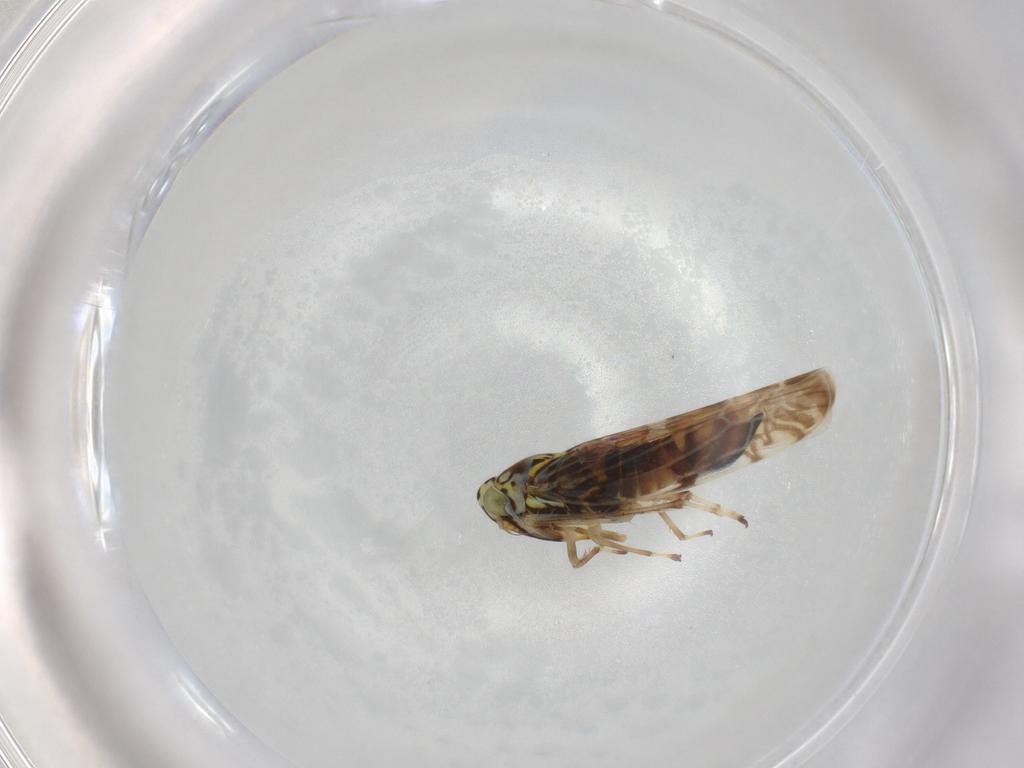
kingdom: Animalia
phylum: Arthropoda
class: Insecta
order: Hemiptera
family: Cicadellidae
